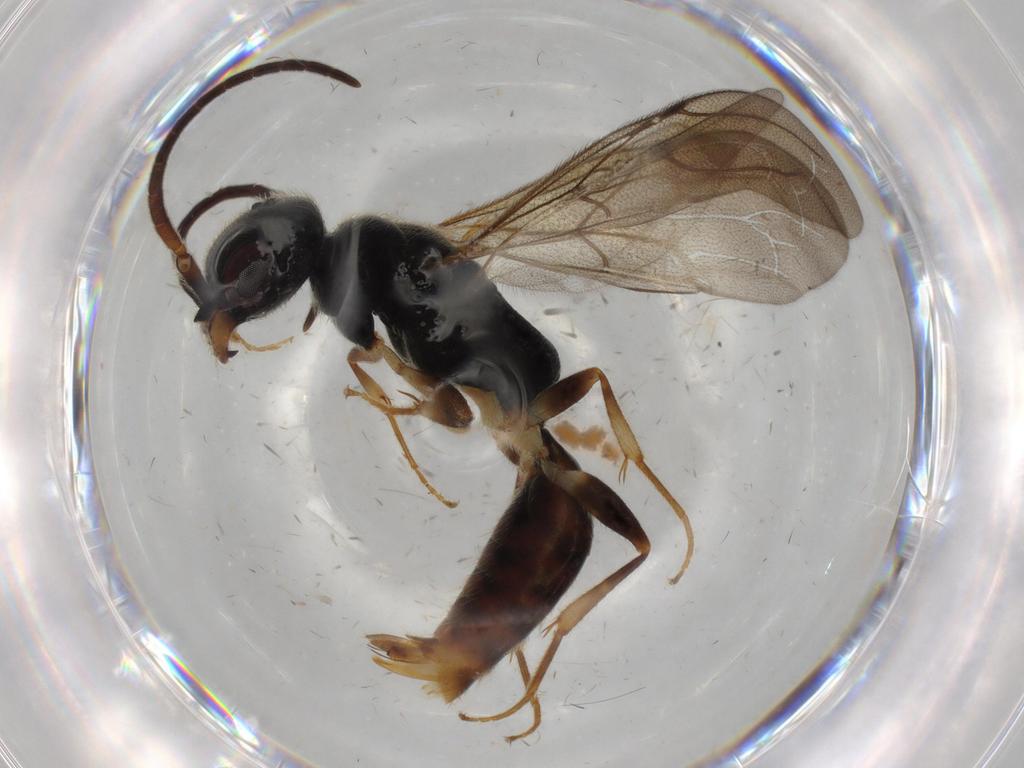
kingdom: Animalia
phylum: Arthropoda
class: Insecta
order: Hymenoptera
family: Bethylidae
